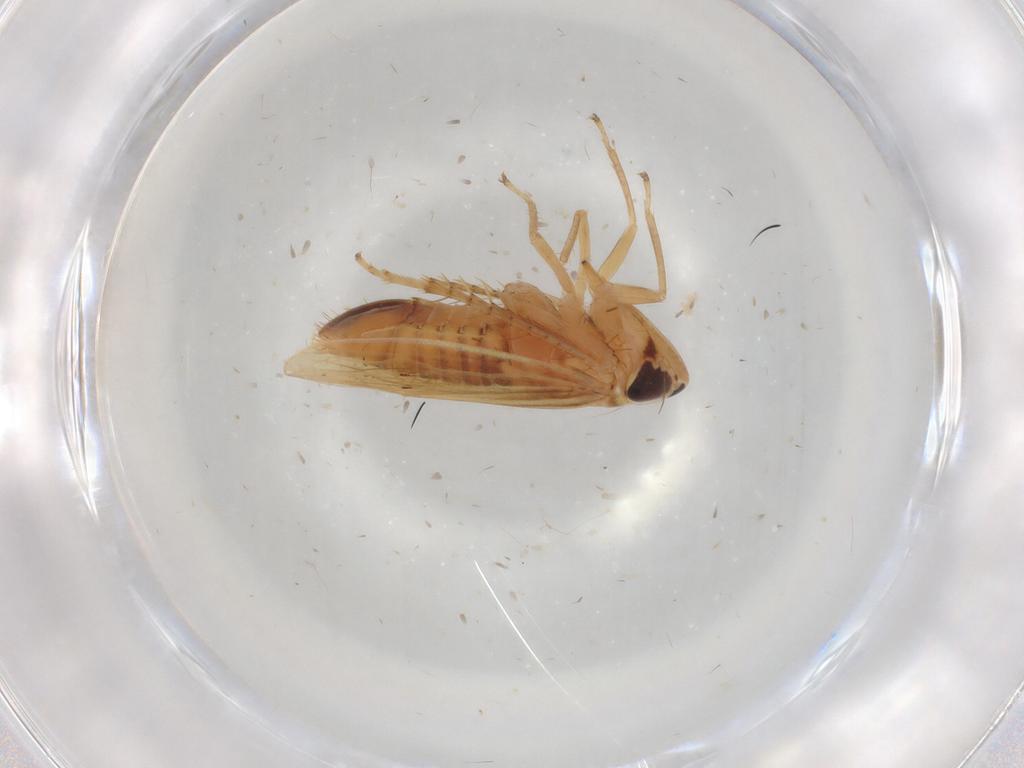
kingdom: Animalia
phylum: Arthropoda
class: Insecta
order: Hemiptera
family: Cicadellidae
